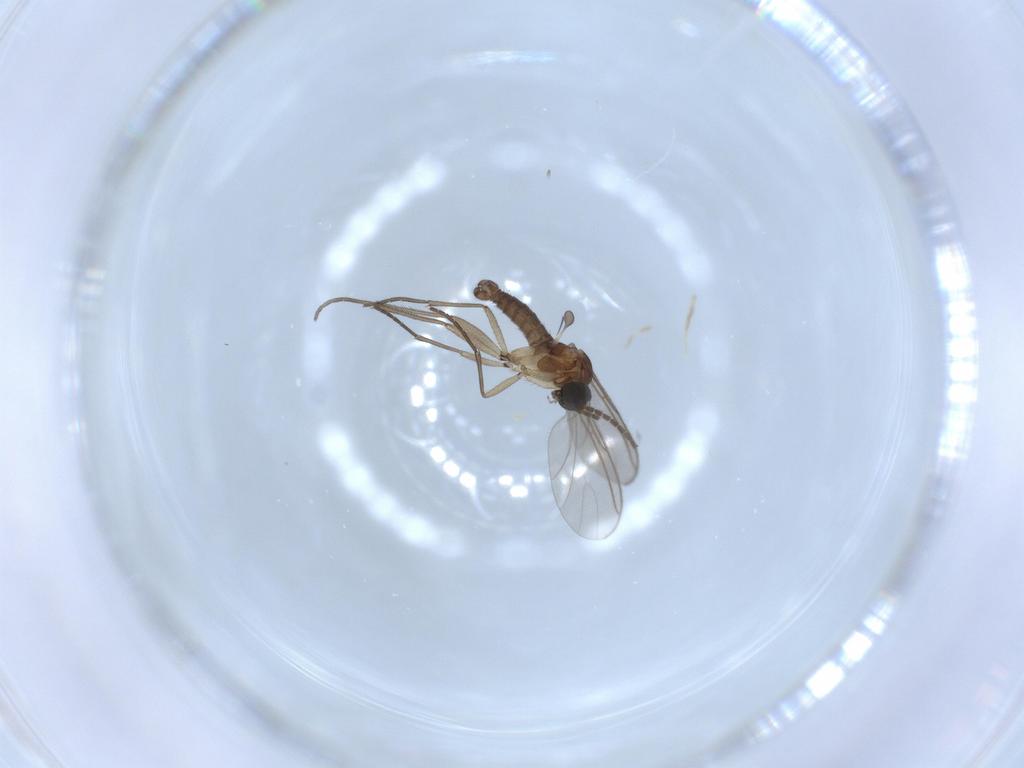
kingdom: Animalia
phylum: Arthropoda
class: Insecta
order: Diptera
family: Sciaridae
